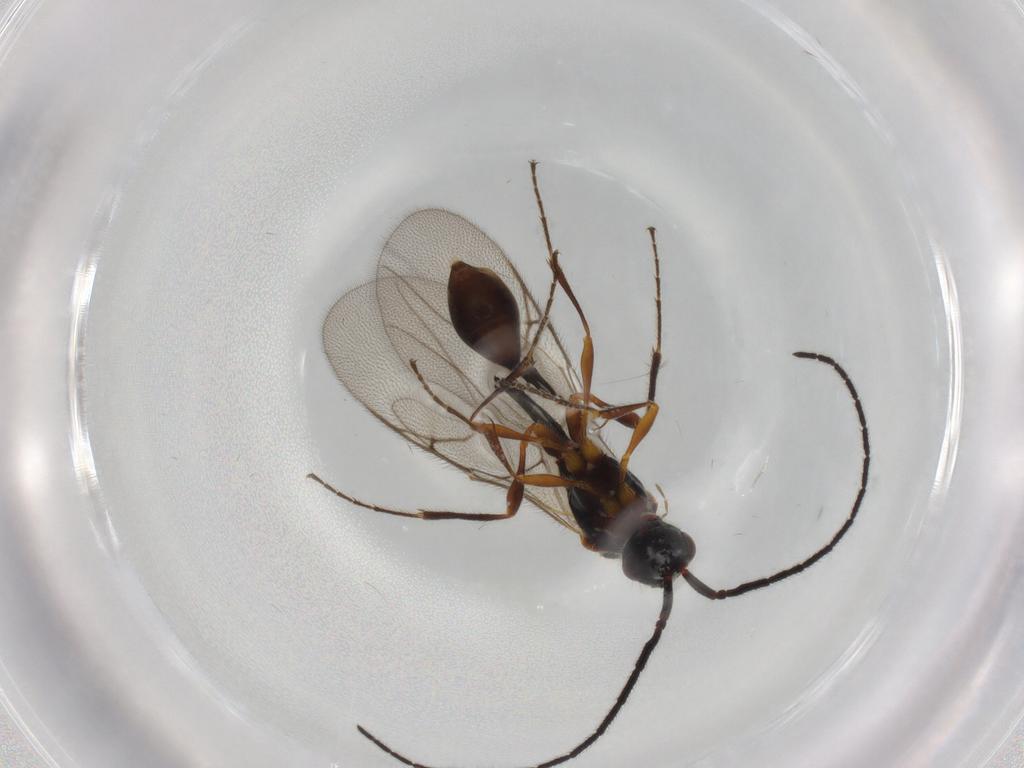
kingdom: Animalia
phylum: Arthropoda
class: Insecta
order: Hymenoptera
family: Diapriidae
